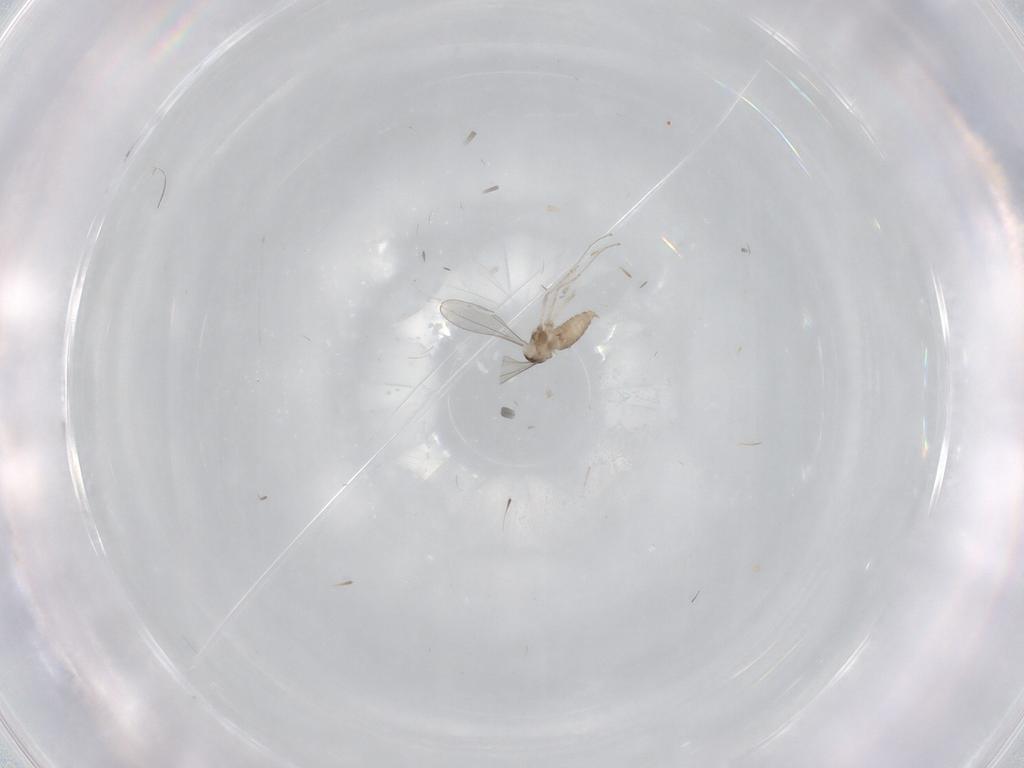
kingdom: Animalia
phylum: Arthropoda
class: Insecta
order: Diptera
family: Cecidomyiidae
